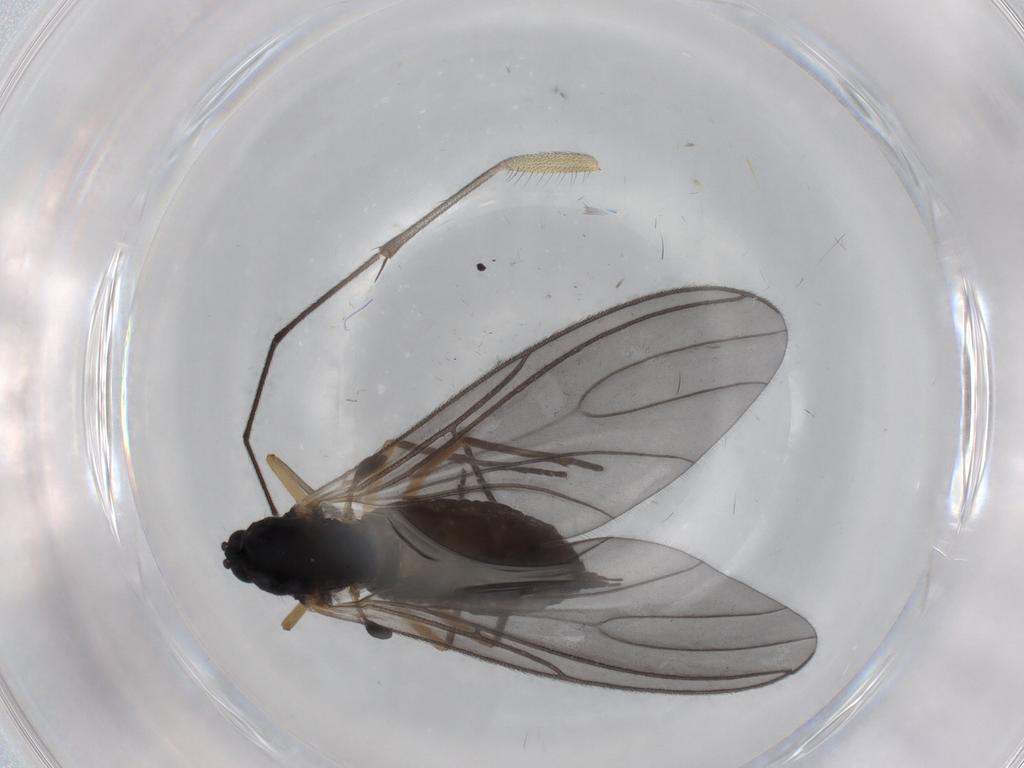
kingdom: Animalia
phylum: Arthropoda
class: Insecta
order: Diptera
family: Sciaridae
